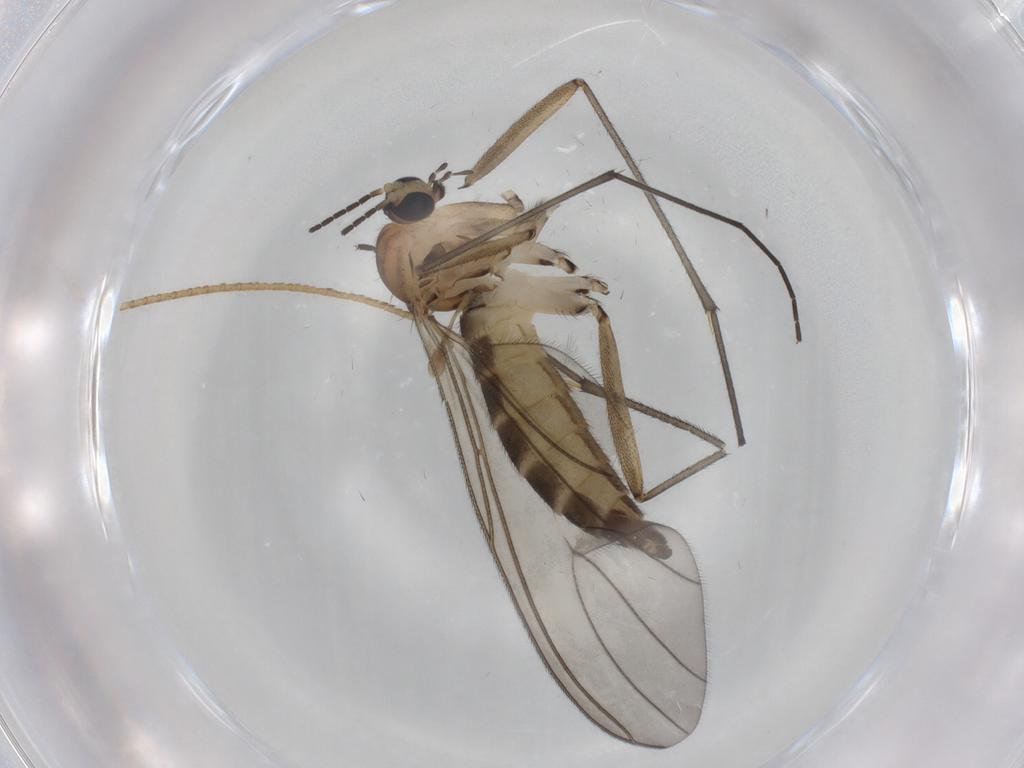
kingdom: Animalia
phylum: Arthropoda
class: Insecta
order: Diptera
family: Sciaridae
